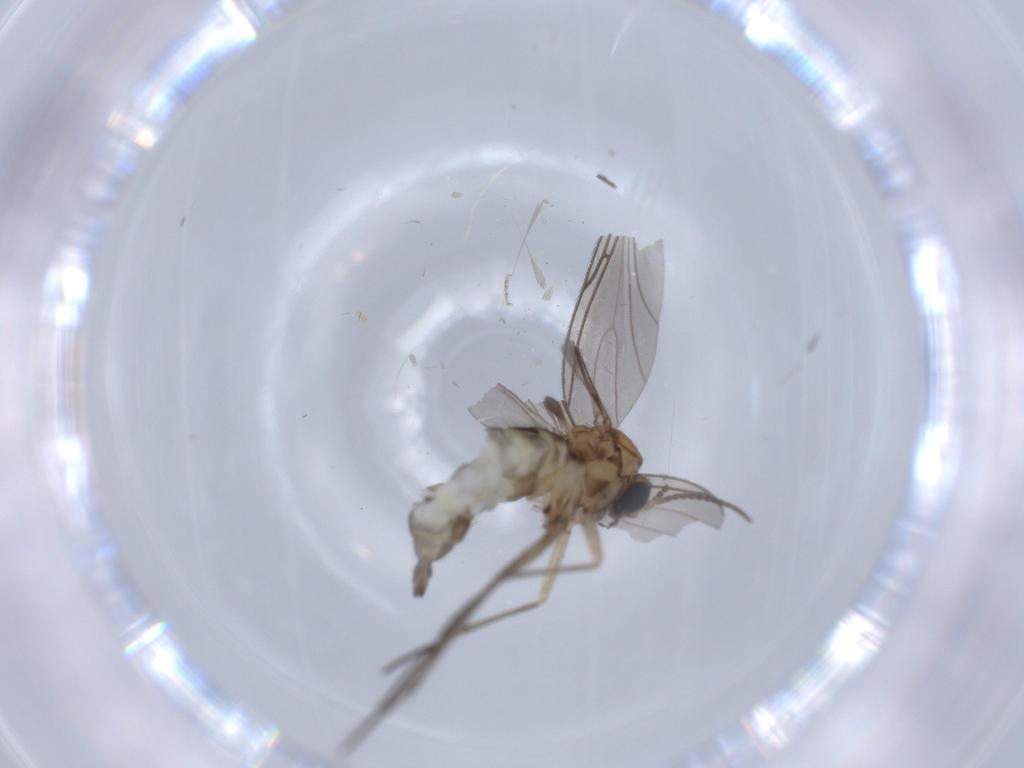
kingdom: Animalia
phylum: Arthropoda
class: Insecta
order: Diptera
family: Sciaridae
